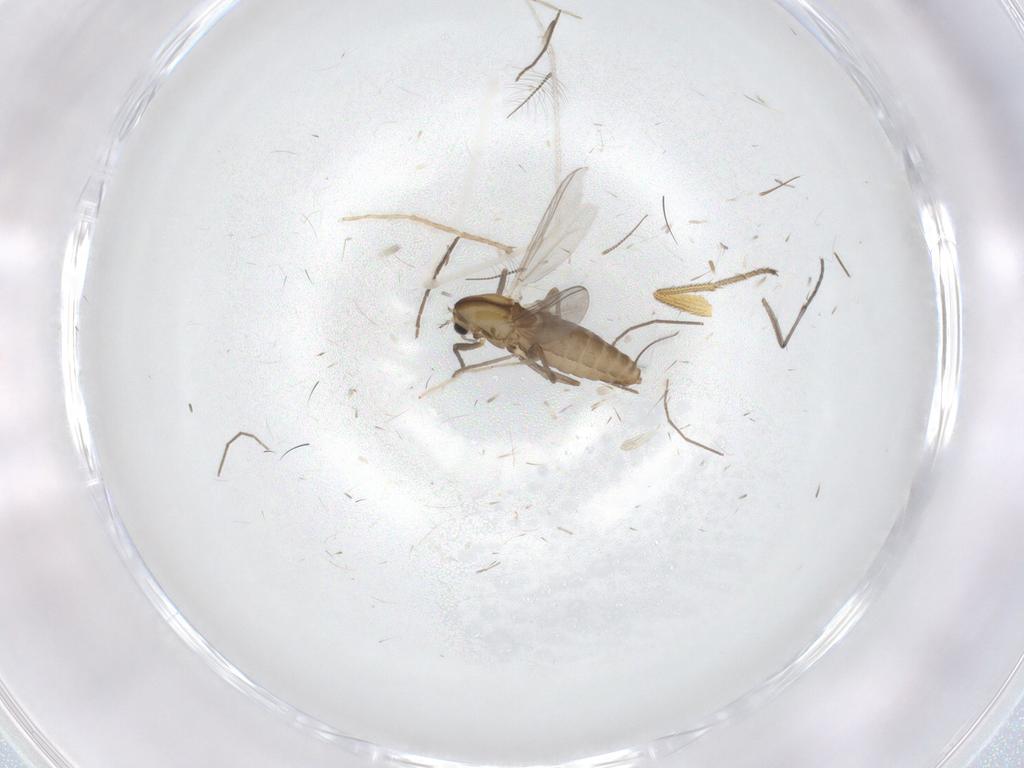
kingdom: Animalia
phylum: Arthropoda
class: Insecta
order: Diptera
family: Chironomidae
